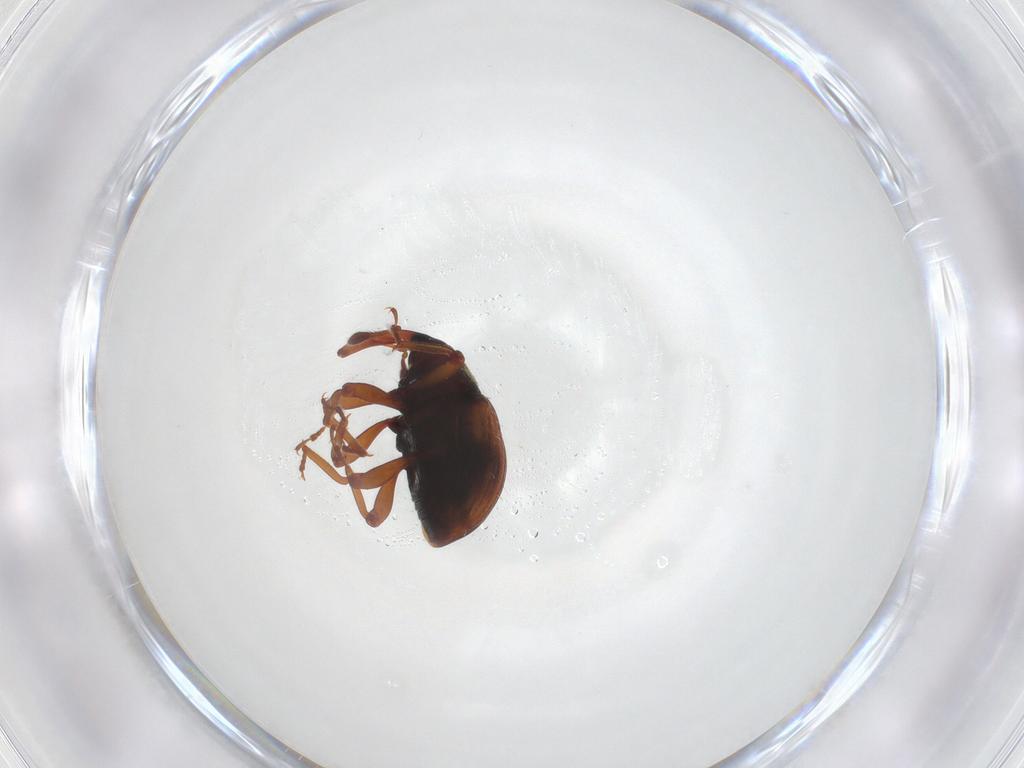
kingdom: Animalia
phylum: Arthropoda
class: Insecta
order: Coleoptera
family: Curculionidae
